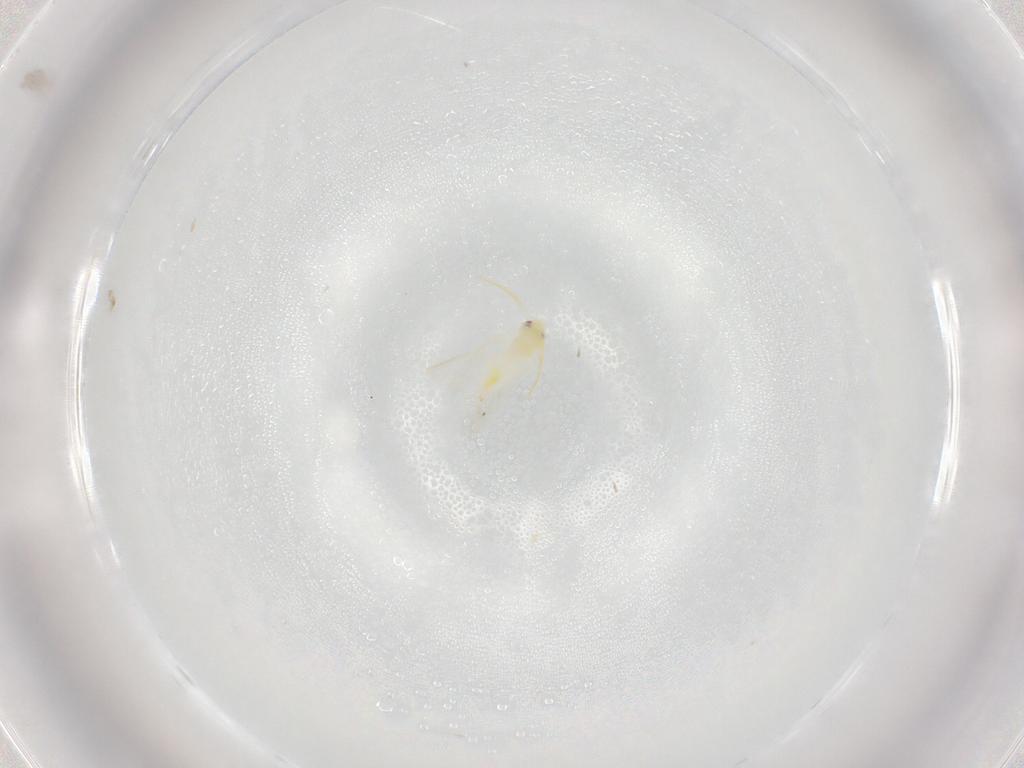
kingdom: Animalia
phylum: Arthropoda
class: Insecta
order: Hemiptera
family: Aleyrodidae
